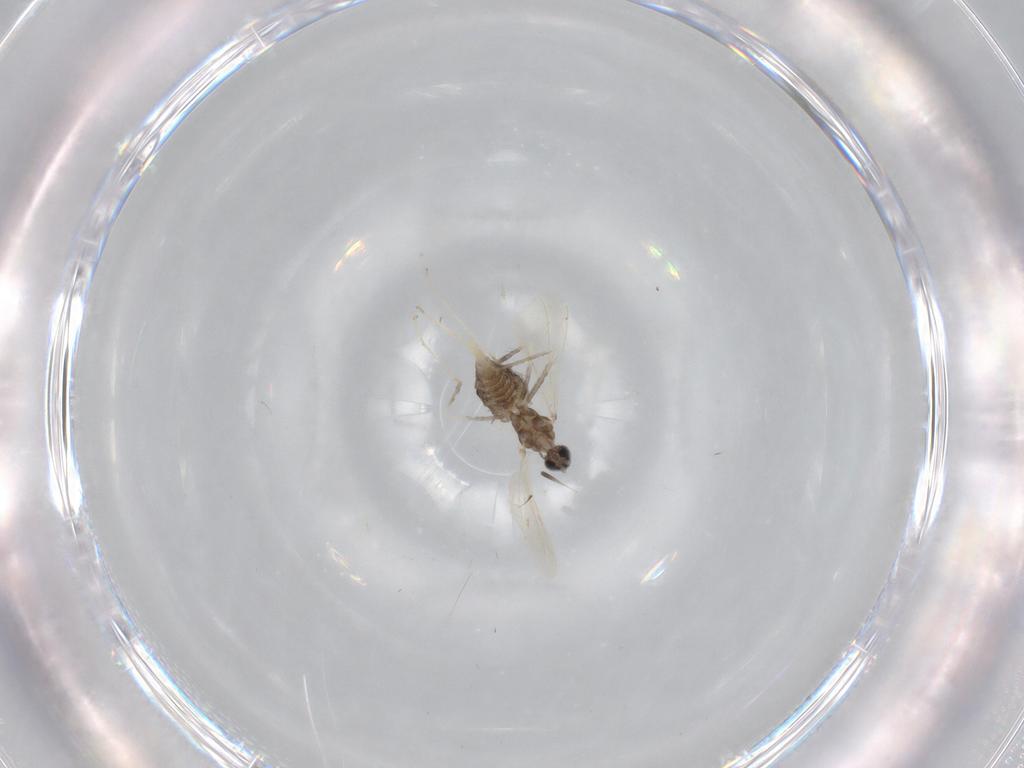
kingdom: Animalia
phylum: Arthropoda
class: Insecta
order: Diptera
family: Cecidomyiidae
